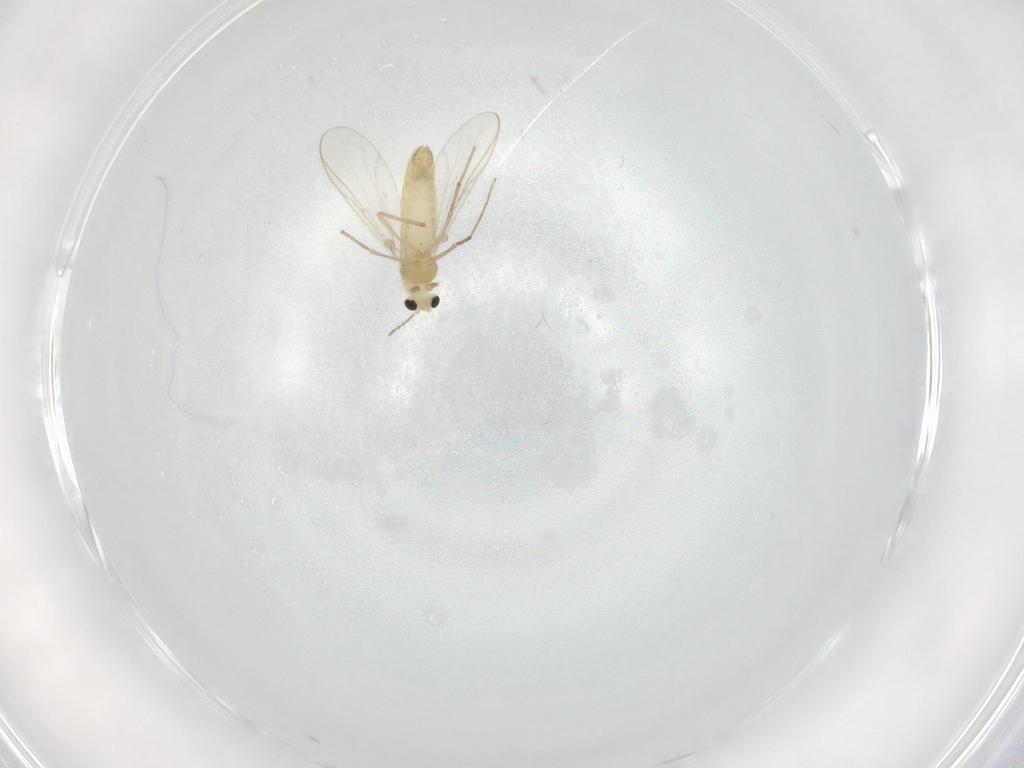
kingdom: Animalia
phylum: Arthropoda
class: Insecta
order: Diptera
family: Chironomidae
